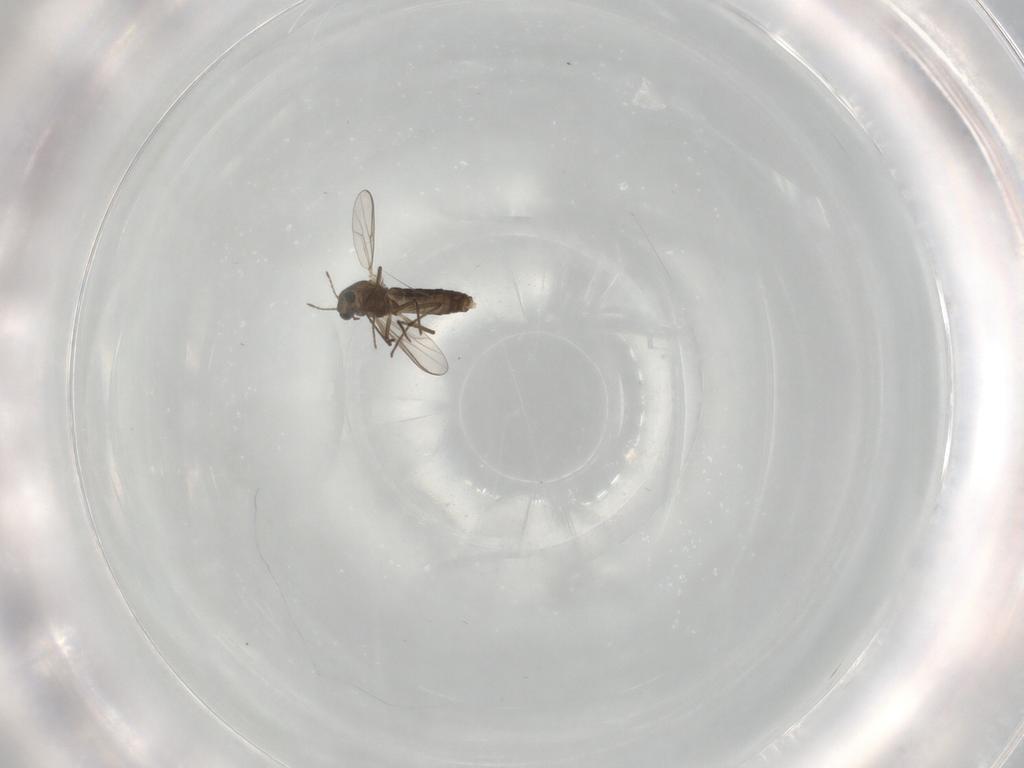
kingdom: Animalia
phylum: Arthropoda
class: Insecta
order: Diptera
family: Chironomidae
